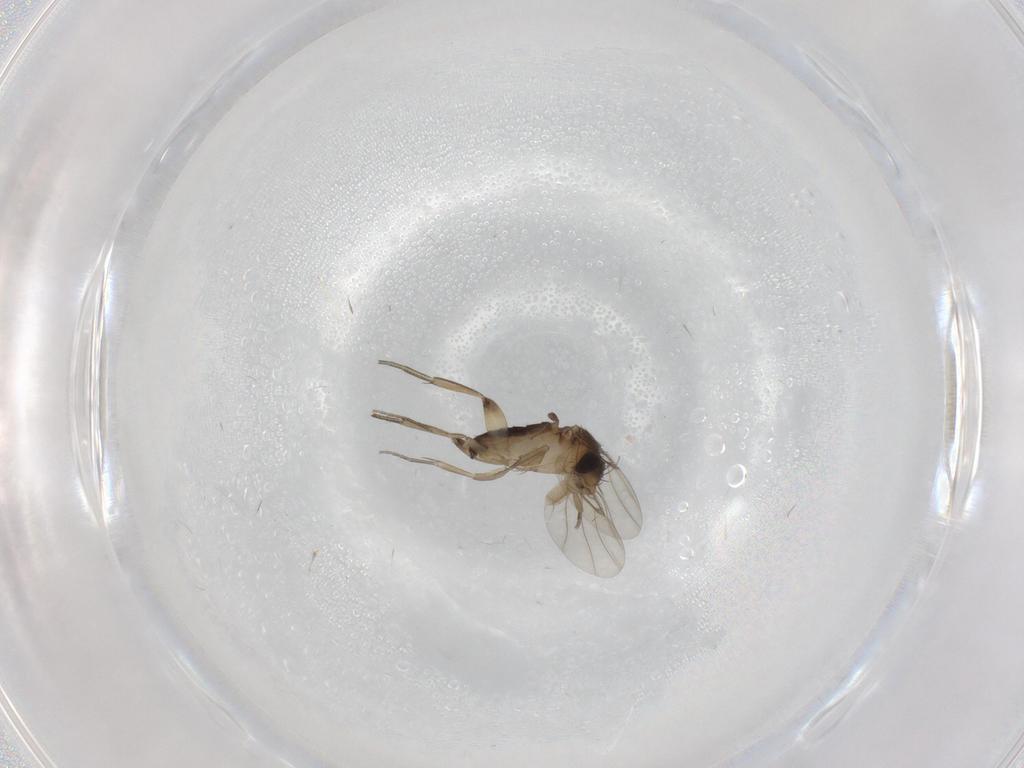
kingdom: Animalia
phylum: Arthropoda
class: Insecta
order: Diptera
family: Phoridae
